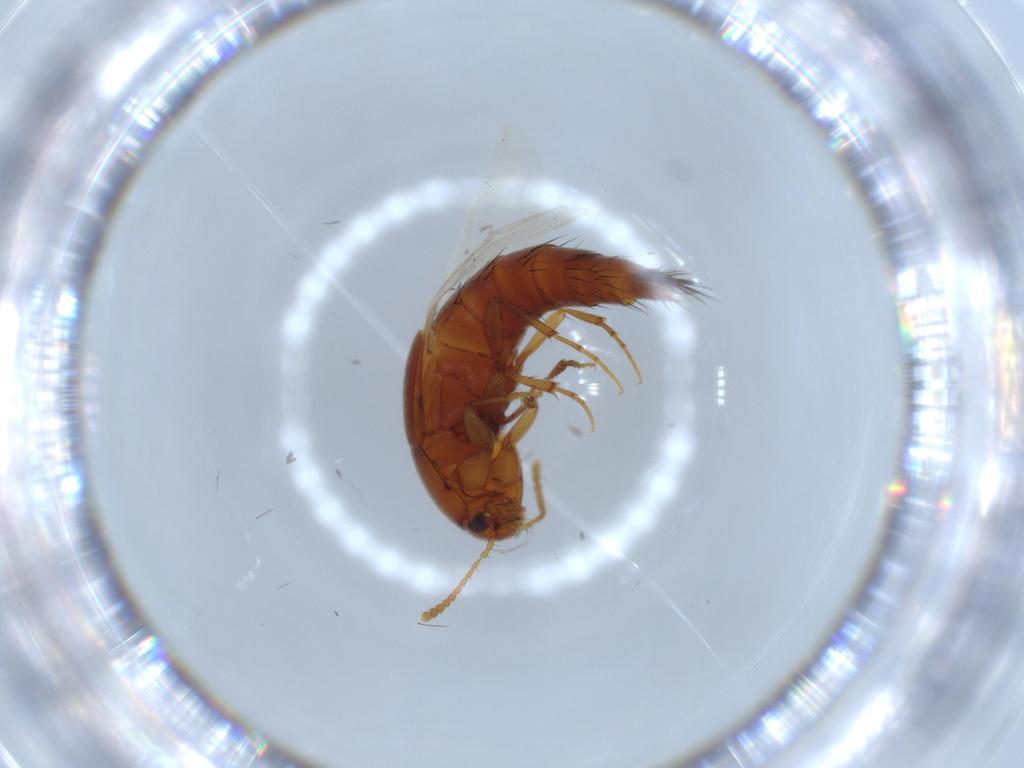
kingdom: Animalia
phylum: Arthropoda
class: Insecta
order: Coleoptera
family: Staphylinidae
